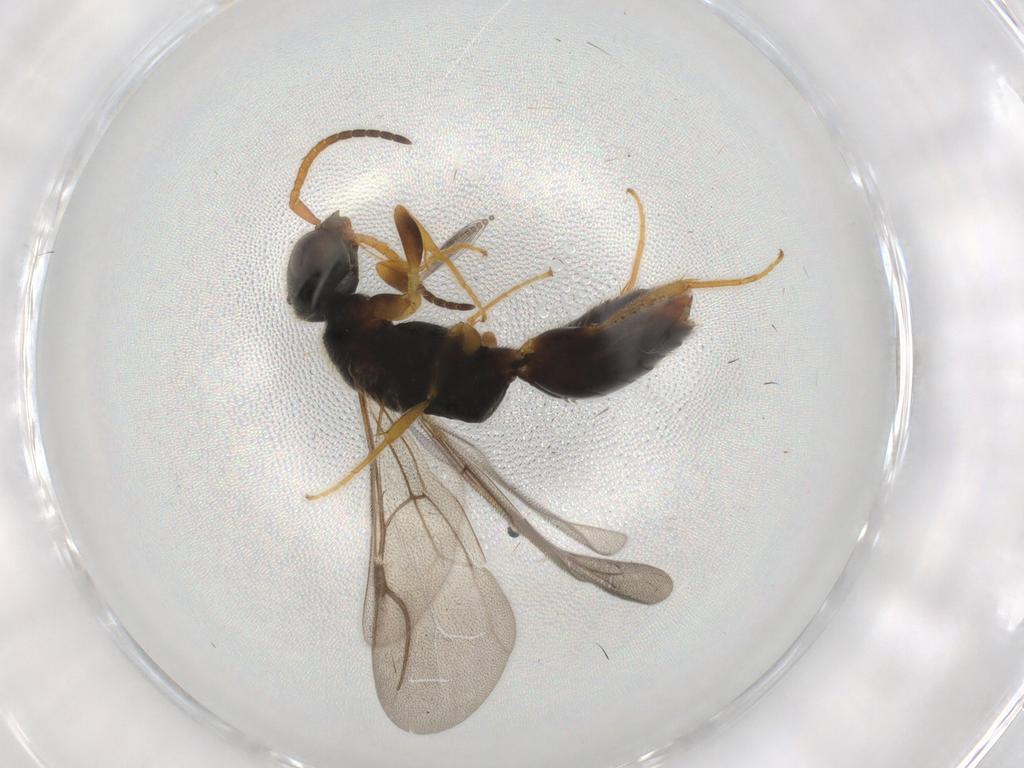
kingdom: Animalia
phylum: Arthropoda
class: Insecta
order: Hymenoptera
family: Bethylidae
